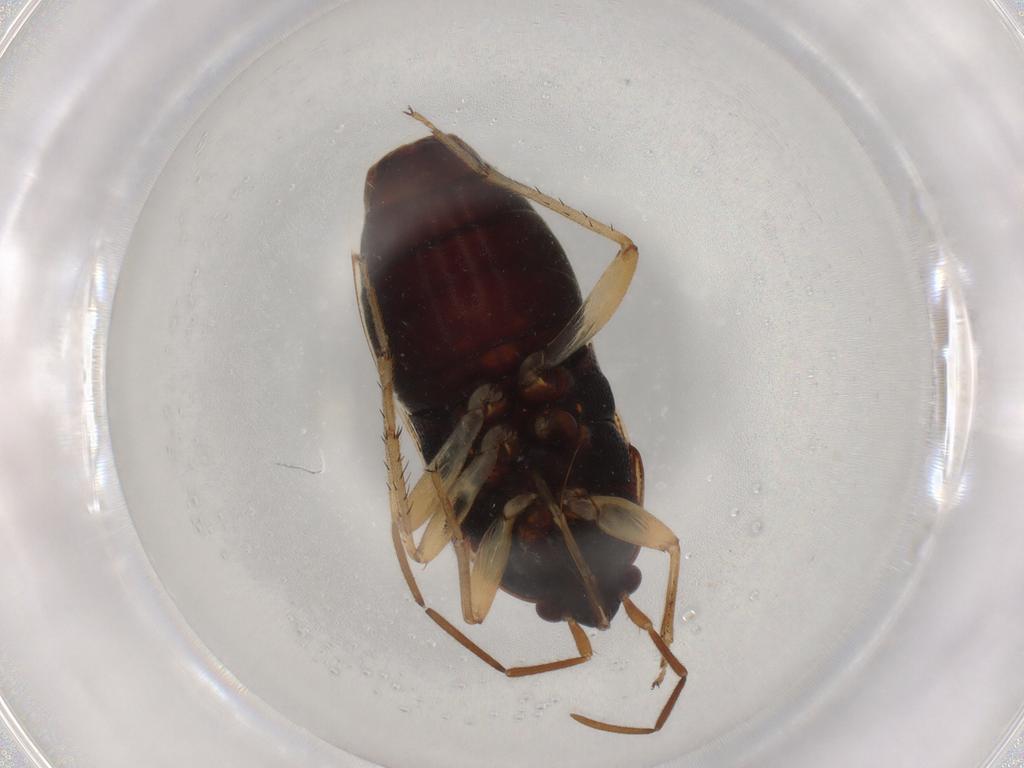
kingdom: Animalia
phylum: Arthropoda
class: Insecta
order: Hemiptera
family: Rhyparochromidae
